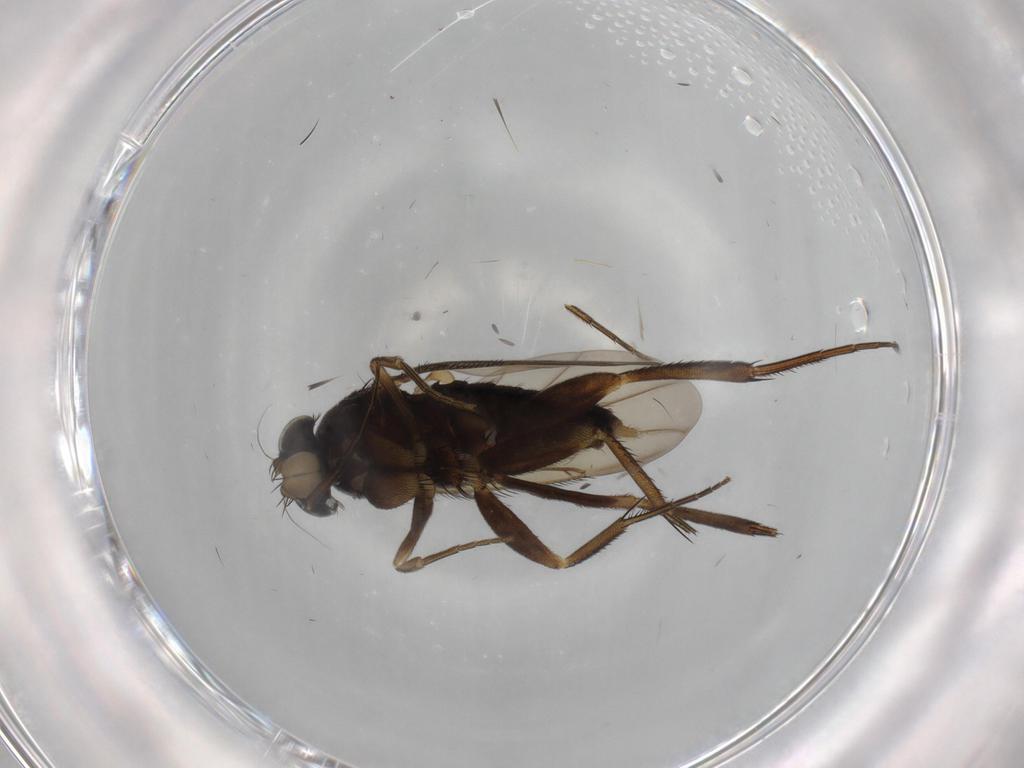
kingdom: Animalia
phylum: Arthropoda
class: Insecta
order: Diptera
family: Phoridae
